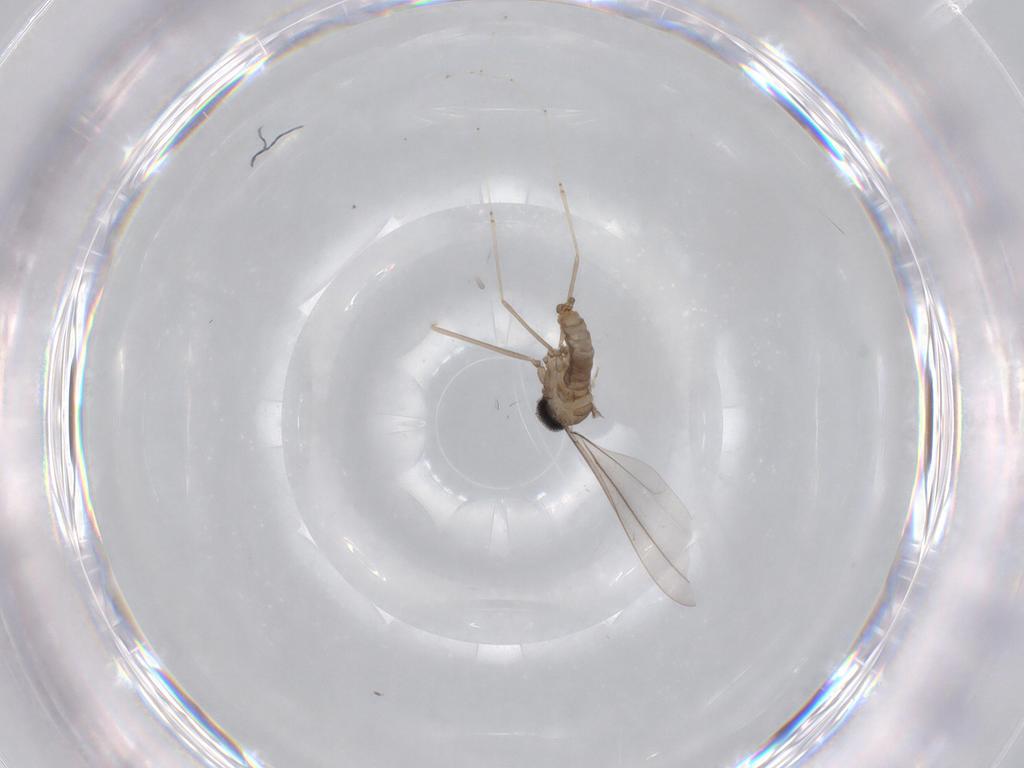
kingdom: Animalia
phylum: Arthropoda
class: Insecta
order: Diptera
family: Cecidomyiidae
